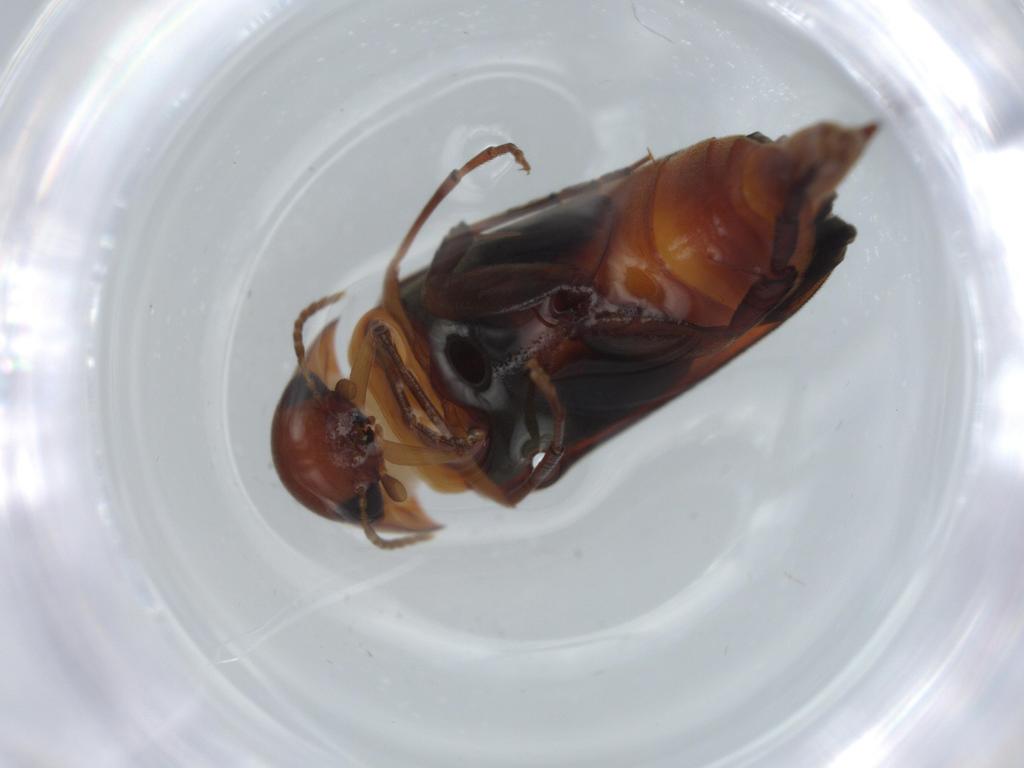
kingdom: Animalia
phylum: Arthropoda
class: Insecta
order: Coleoptera
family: Mordellidae
